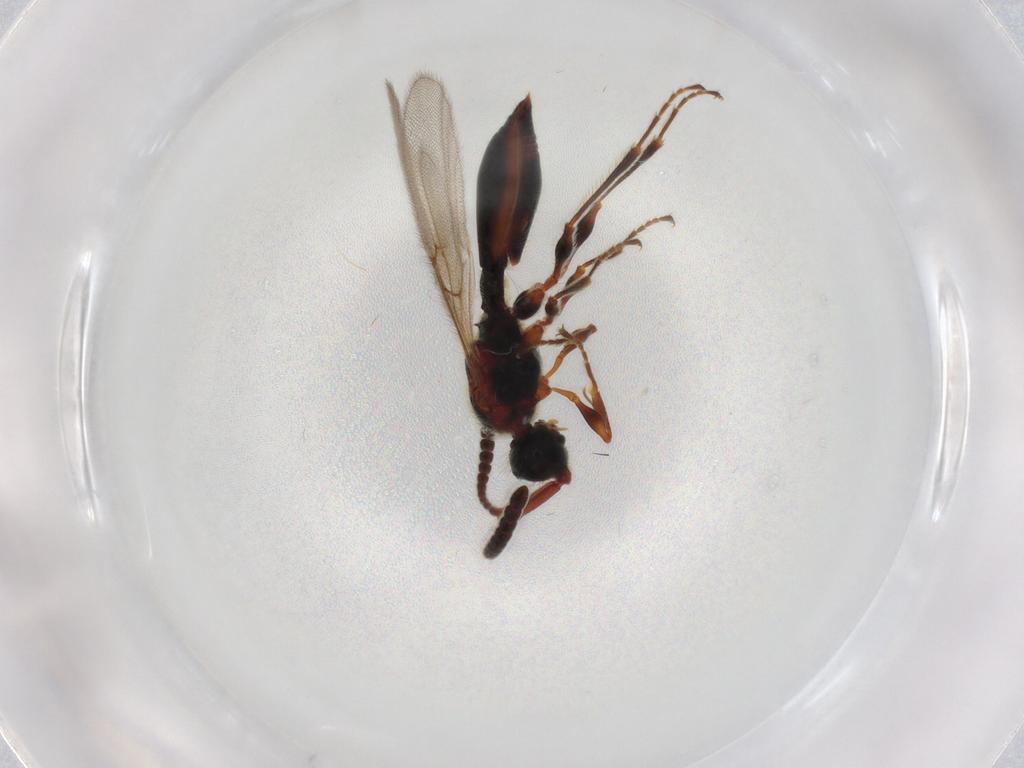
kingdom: Animalia
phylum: Arthropoda
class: Insecta
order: Hymenoptera
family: Diapriidae
